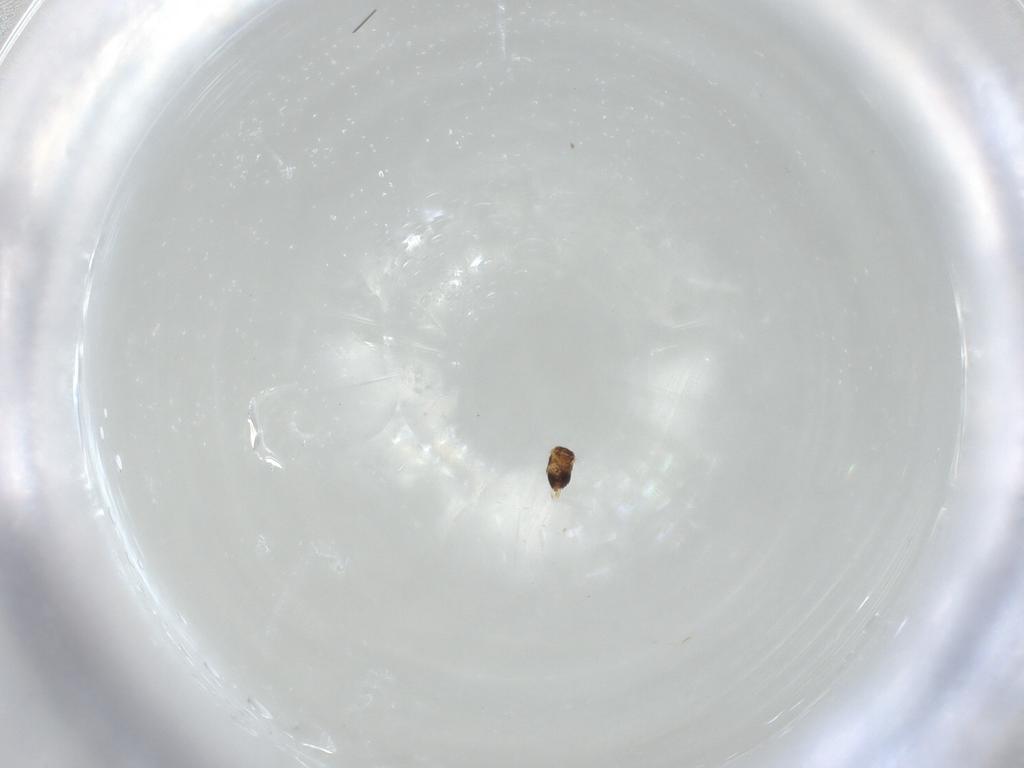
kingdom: Animalia
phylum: Arthropoda
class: Insecta
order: Hymenoptera
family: Azotidae
